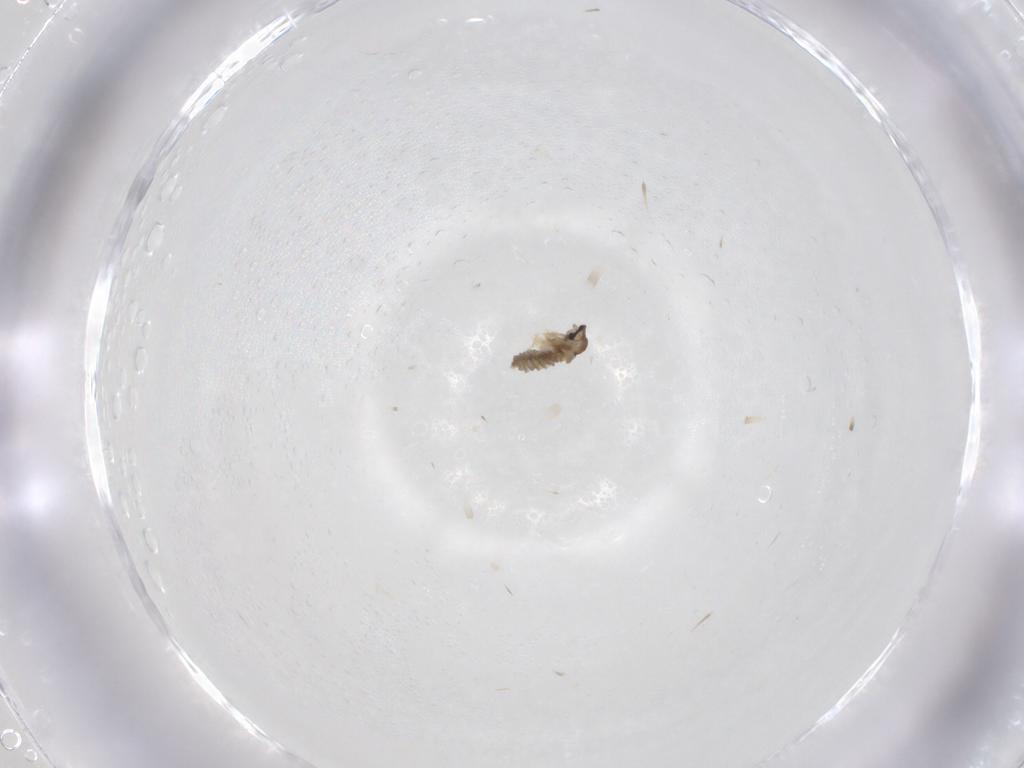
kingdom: Animalia
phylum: Arthropoda
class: Insecta
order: Diptera
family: Cecidomyiidae
